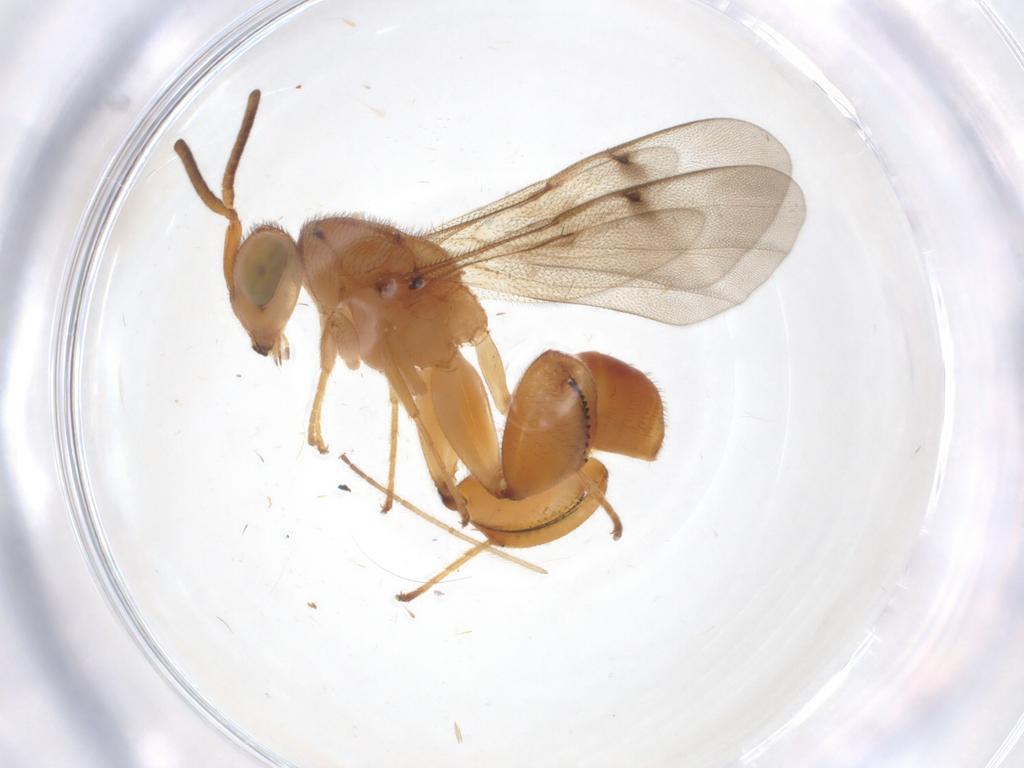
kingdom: Animalia
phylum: Arthropoda
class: Insecta
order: Hymenoptera
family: Chalcididae
